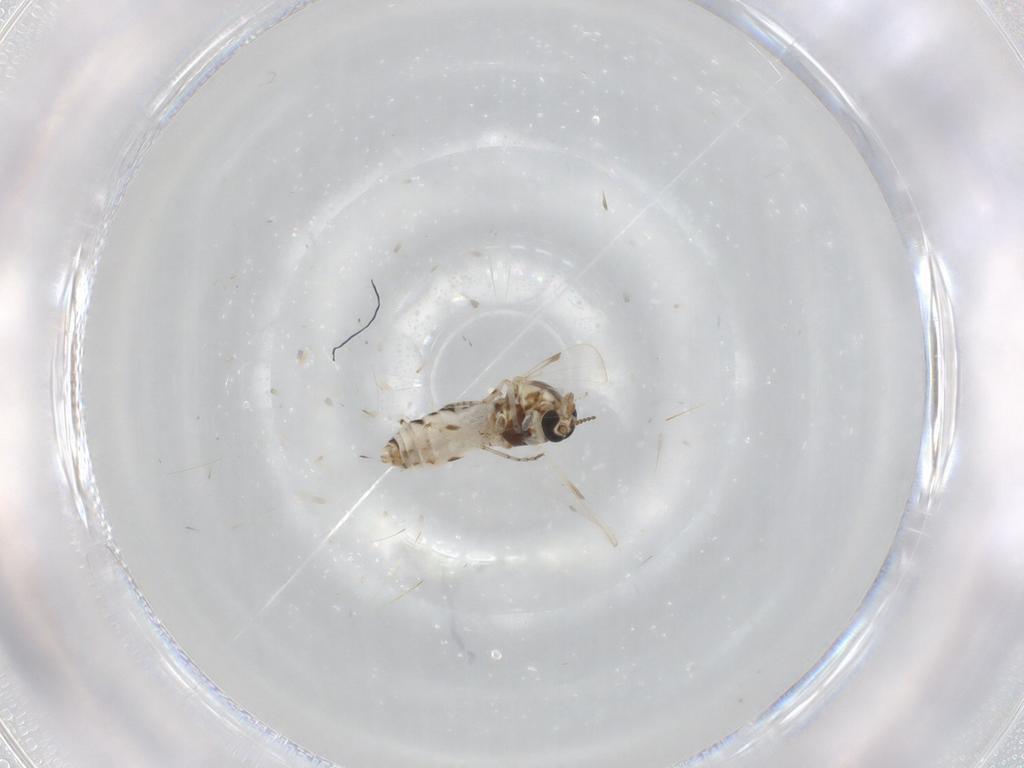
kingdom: Animalia
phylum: Arthropoda
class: Insecta
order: Diptera
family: Ceratopogonidae
